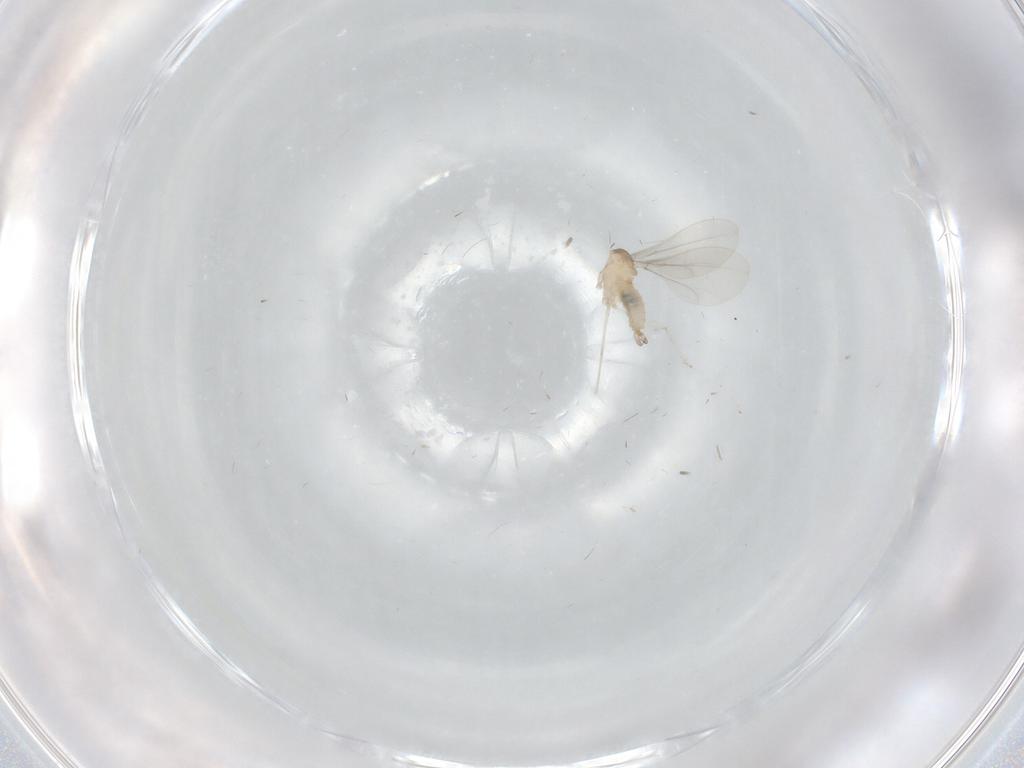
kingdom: Animalia
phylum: Arthropoda
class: Insecta
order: Diptera
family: Cecidomyiidae
